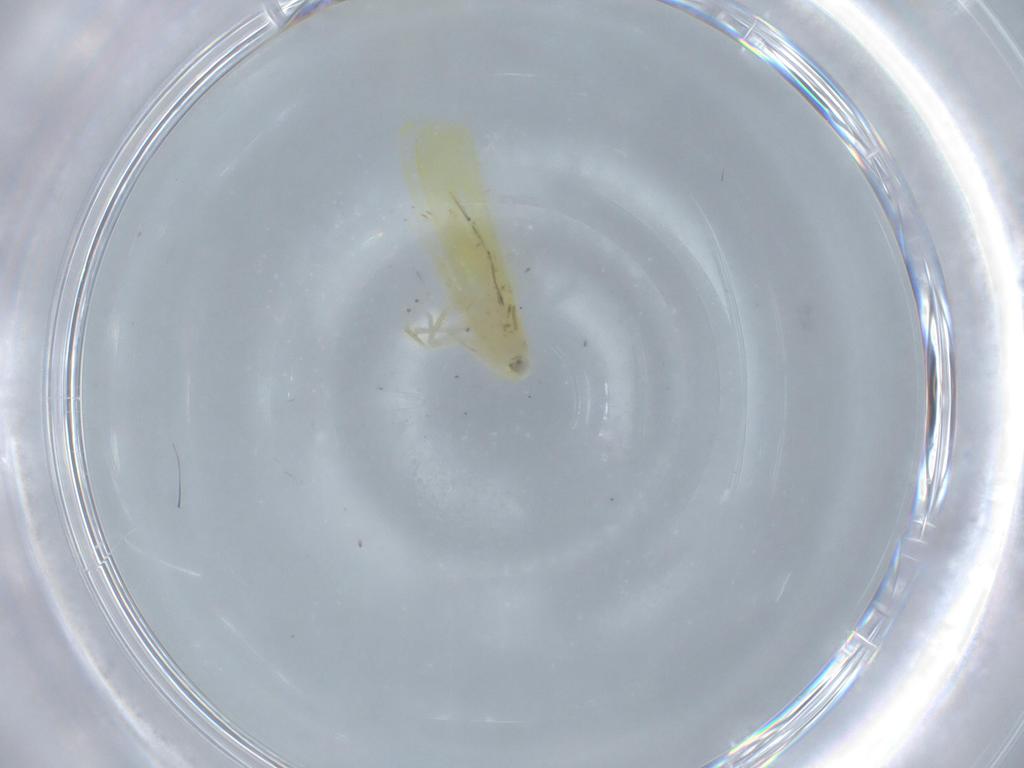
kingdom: Animalia
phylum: Arthropoda
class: Insecta
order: Hemiptera
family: Cicadellidae
